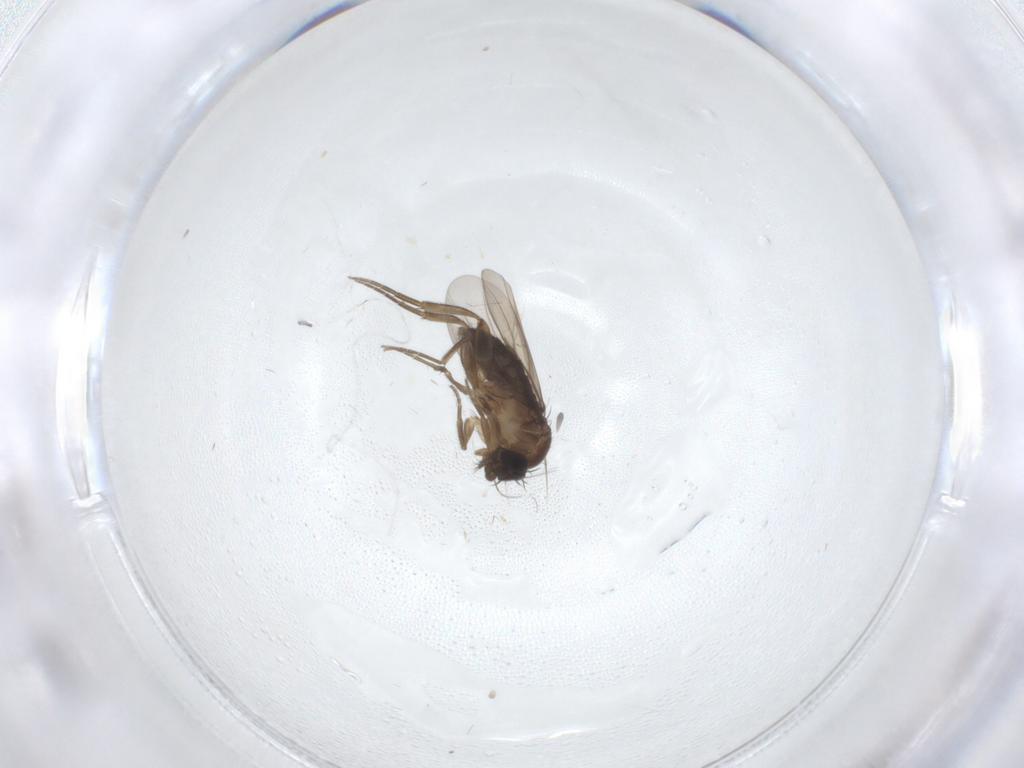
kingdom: Animalia
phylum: Arthropoda
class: Insecta
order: Diptera
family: Phoridae
